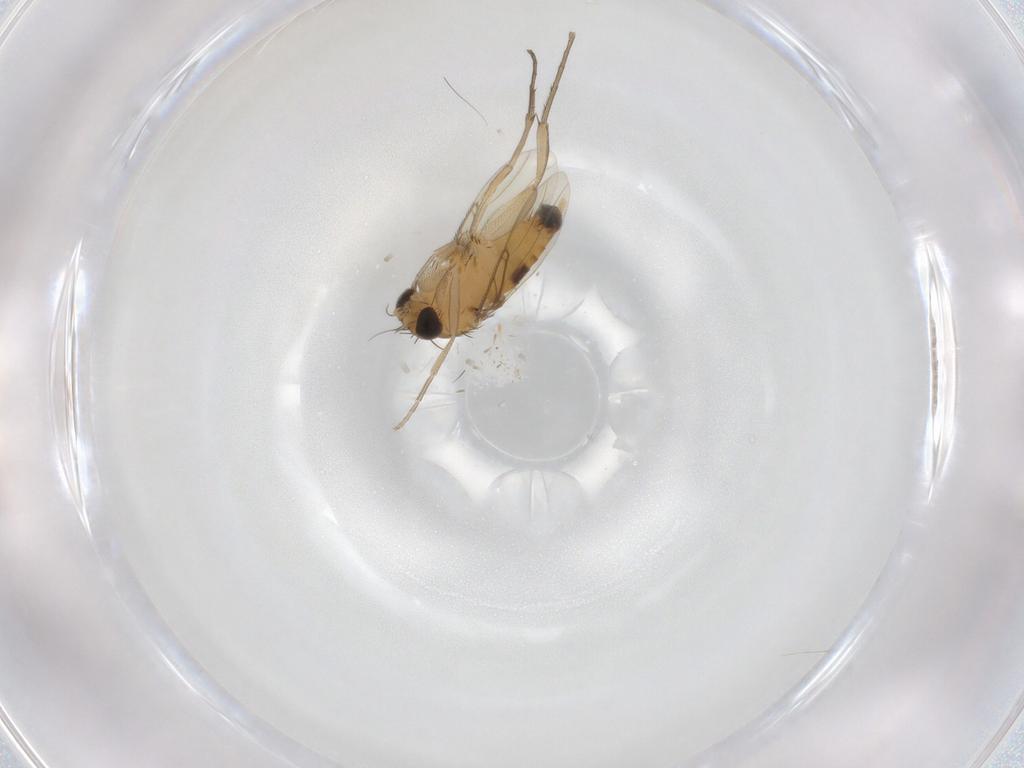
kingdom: Animalia
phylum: Arthropoda
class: Insecta
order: Diptera
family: Phoridae
